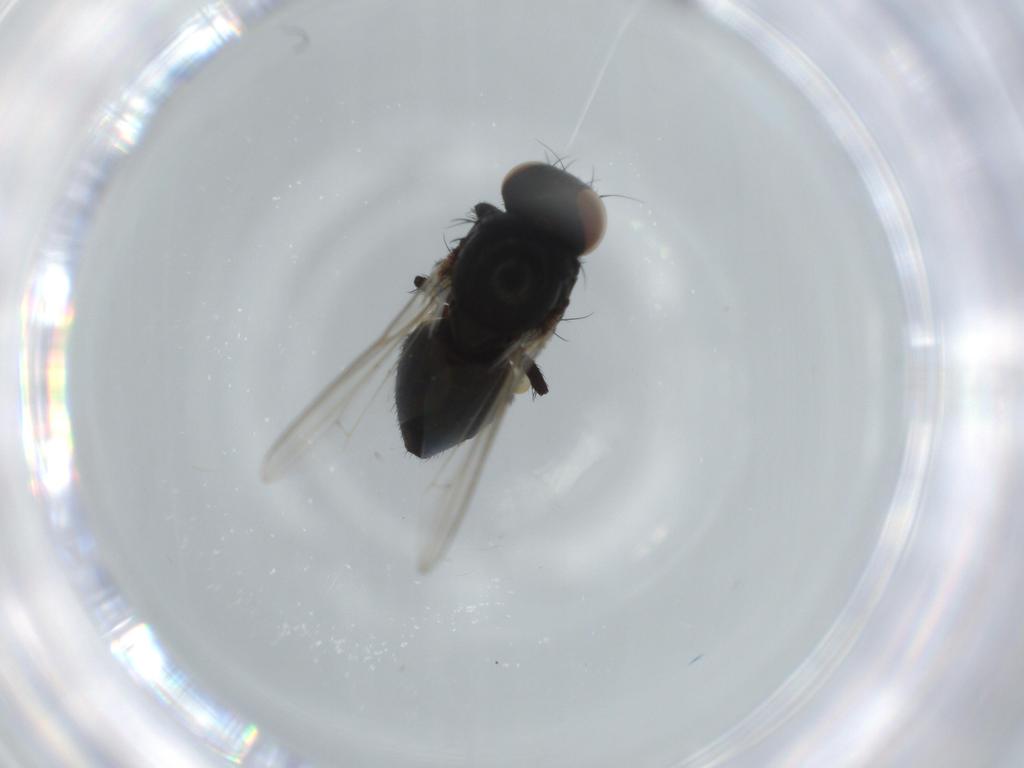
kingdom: Animalia
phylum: Arthropoda
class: Insecta
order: Diptera
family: Chloropidae
